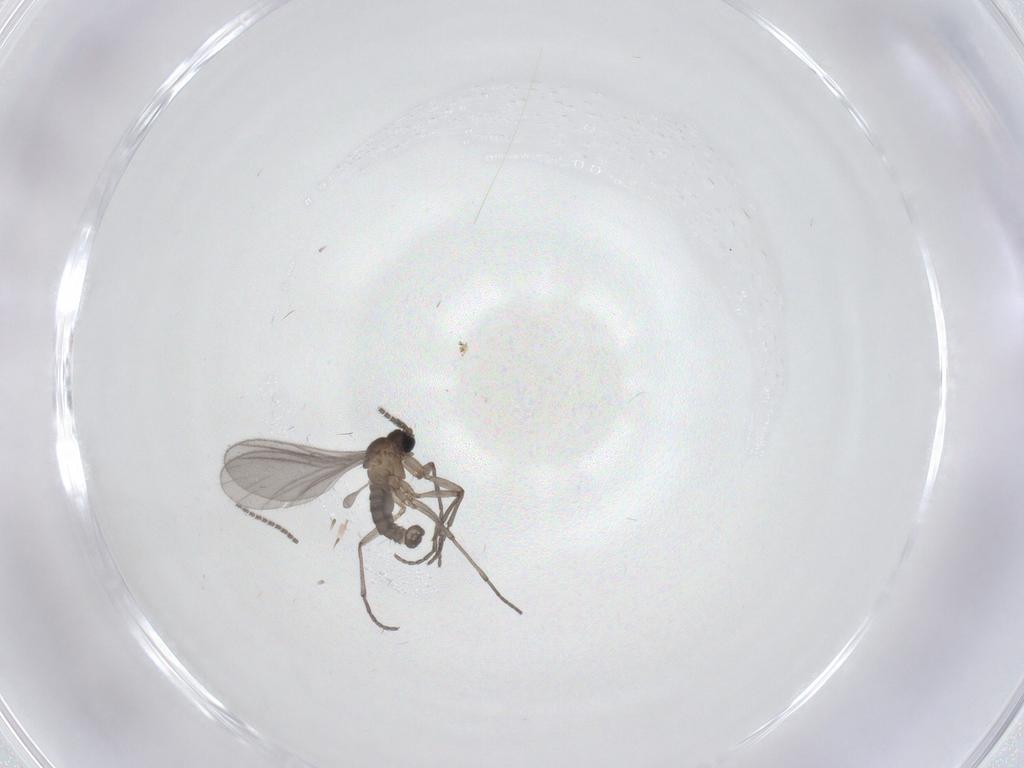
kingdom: Animalia
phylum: Arthropoda
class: Insecta
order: Diptera
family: Sciaridae
